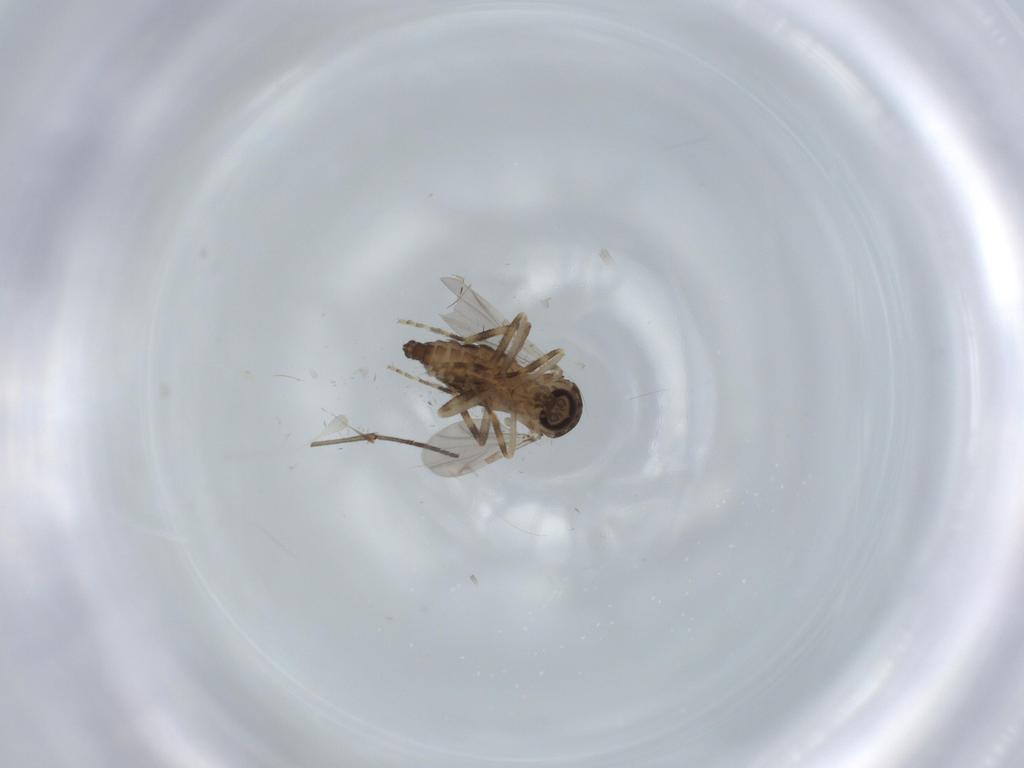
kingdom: Animalia
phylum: Arthropoda
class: Insecta
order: Diptera
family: Ceratopogonidae
